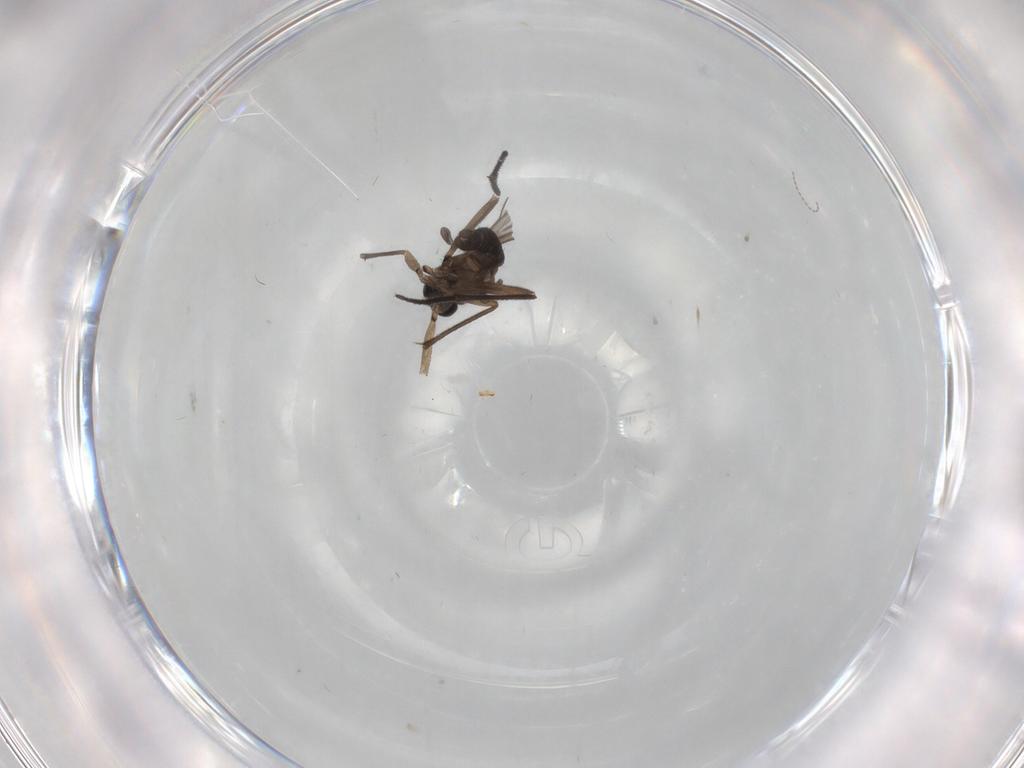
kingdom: Animalia
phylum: Arthropoda
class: Insecta
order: Diptera
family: Sciaridae
